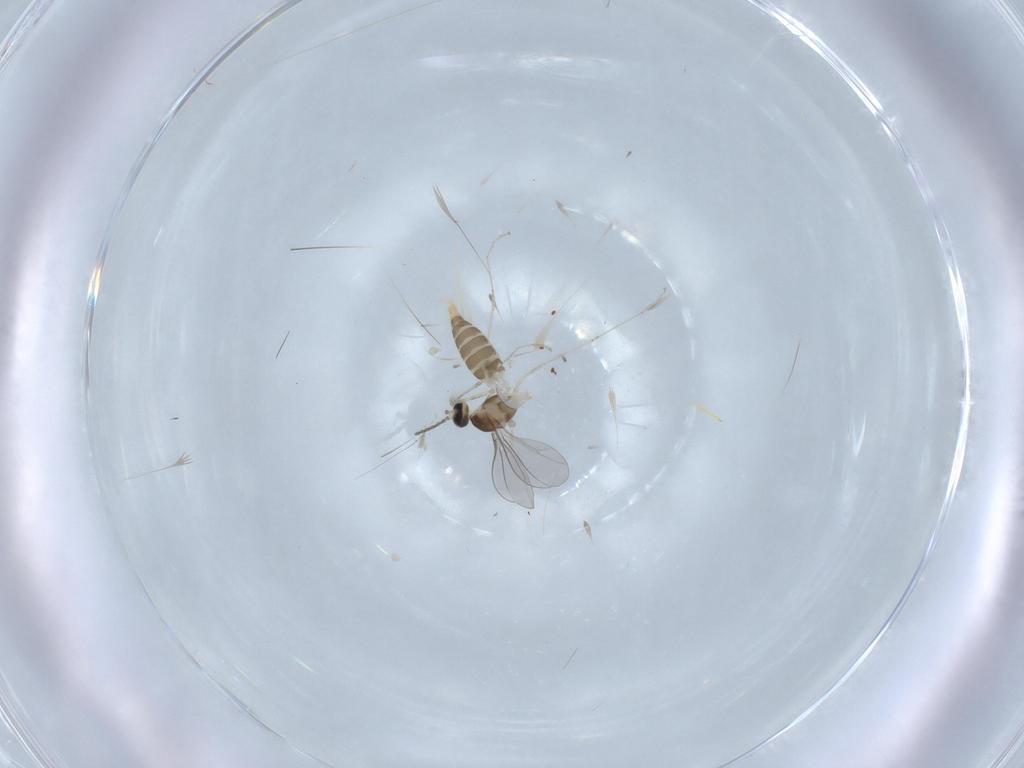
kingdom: Animalia
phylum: Arthropoda
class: Insecta
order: Diptera
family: Cecidomyiidae
